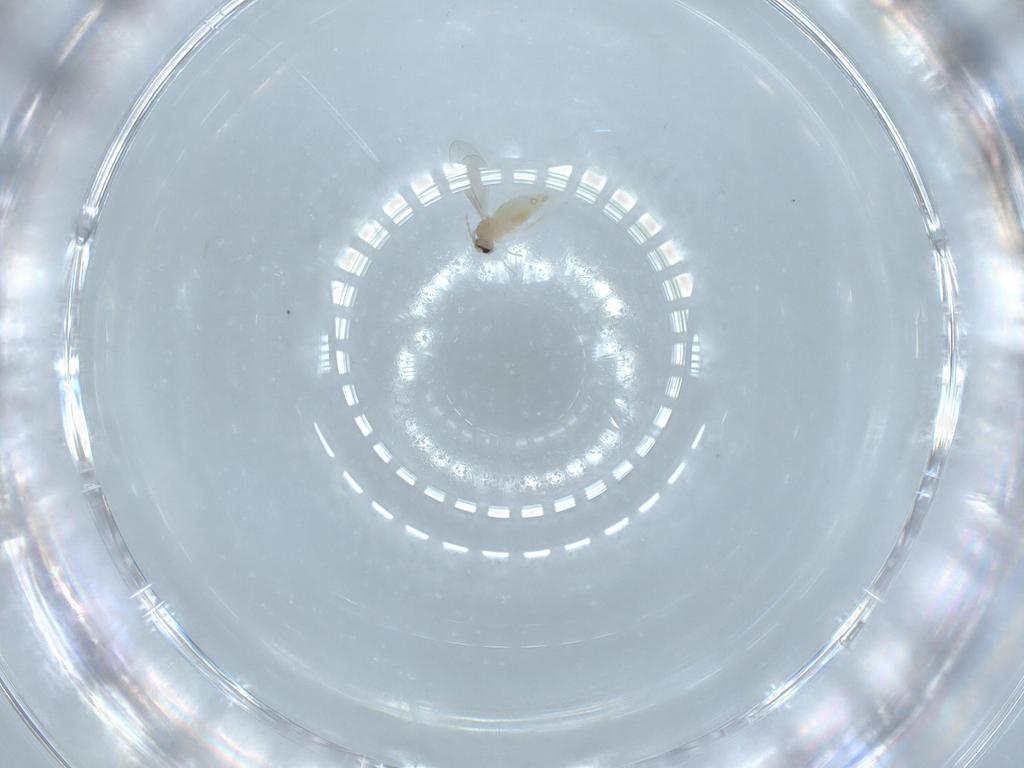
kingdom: Animalia
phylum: Arthropoda
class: Insecta
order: Diptera
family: Cecidomyiidae
